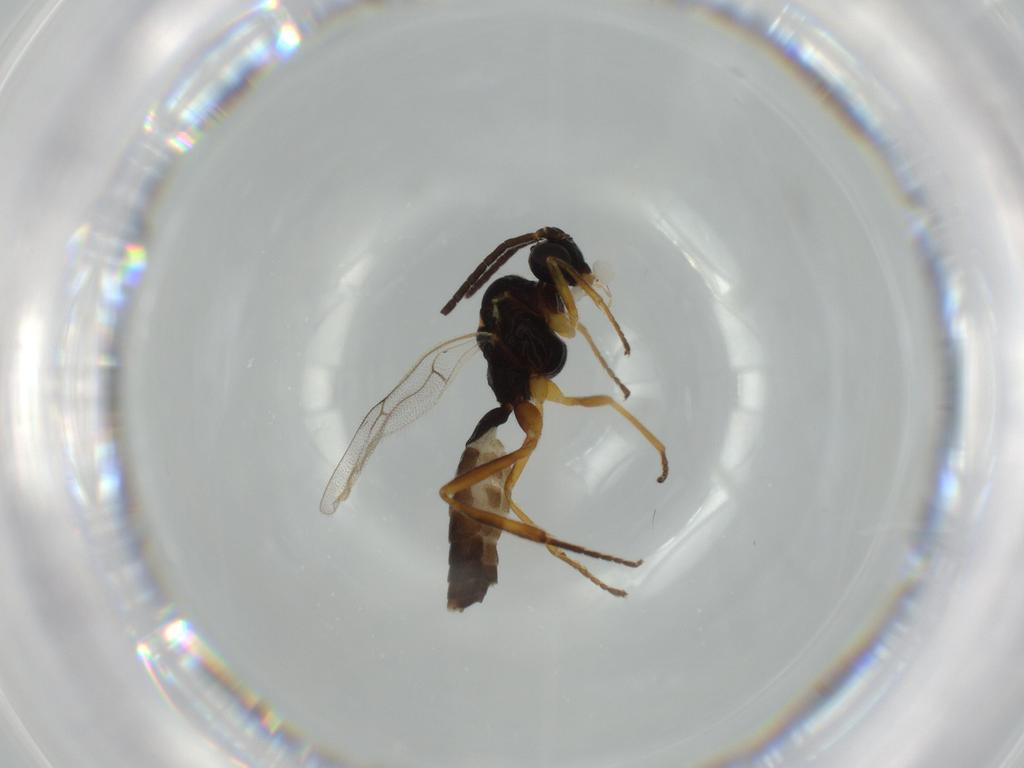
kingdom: Animalia
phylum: Arthropoda
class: Insecta
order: Hymenoptera
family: Ichneumonidae
